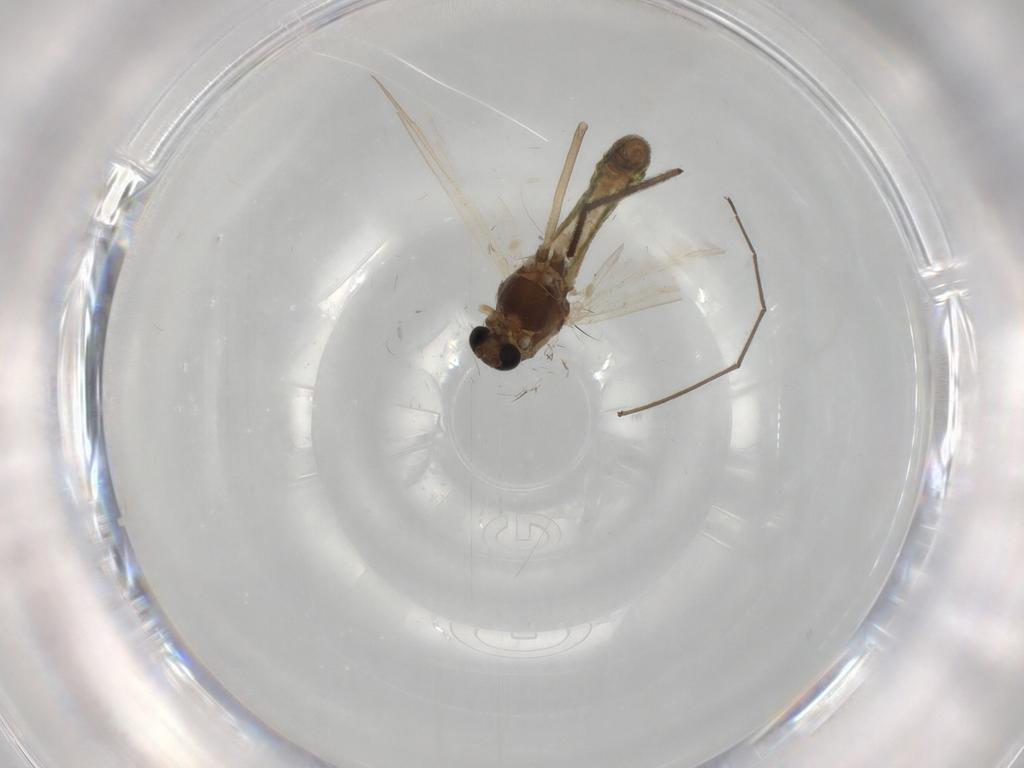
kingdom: Animalia
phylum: Arthropoda
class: Insecta
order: Diptera
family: Chironomidae
